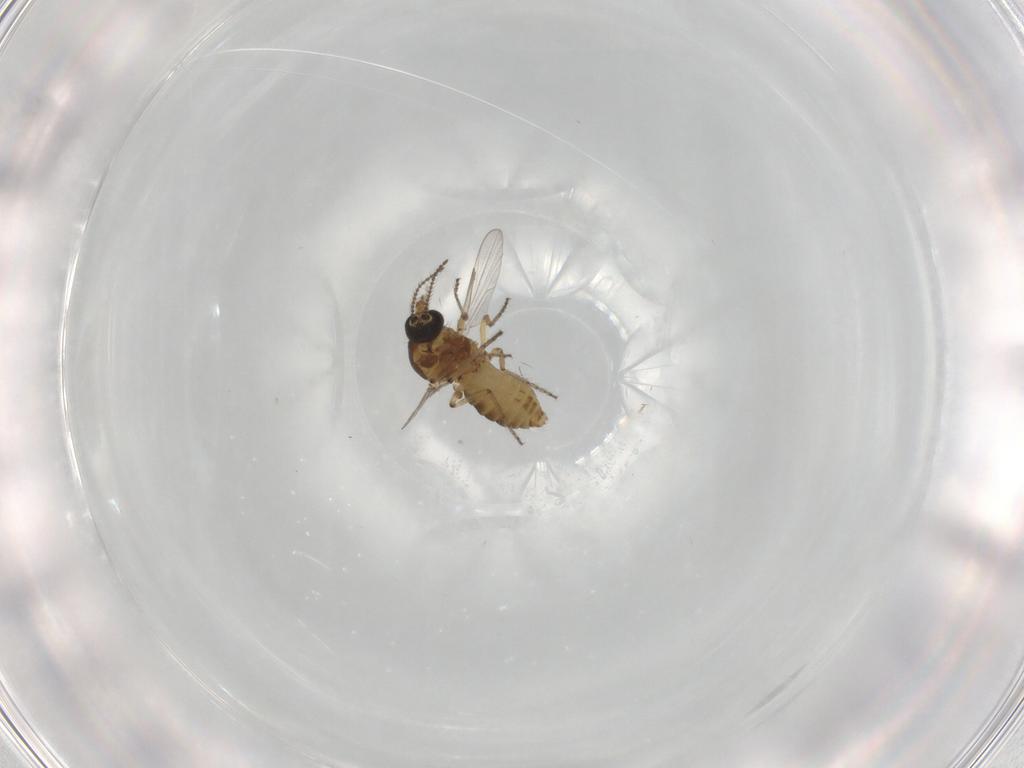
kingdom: Animalia
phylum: Arthropoda
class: Insecta
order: Diptera
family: Ceratopogonidae
